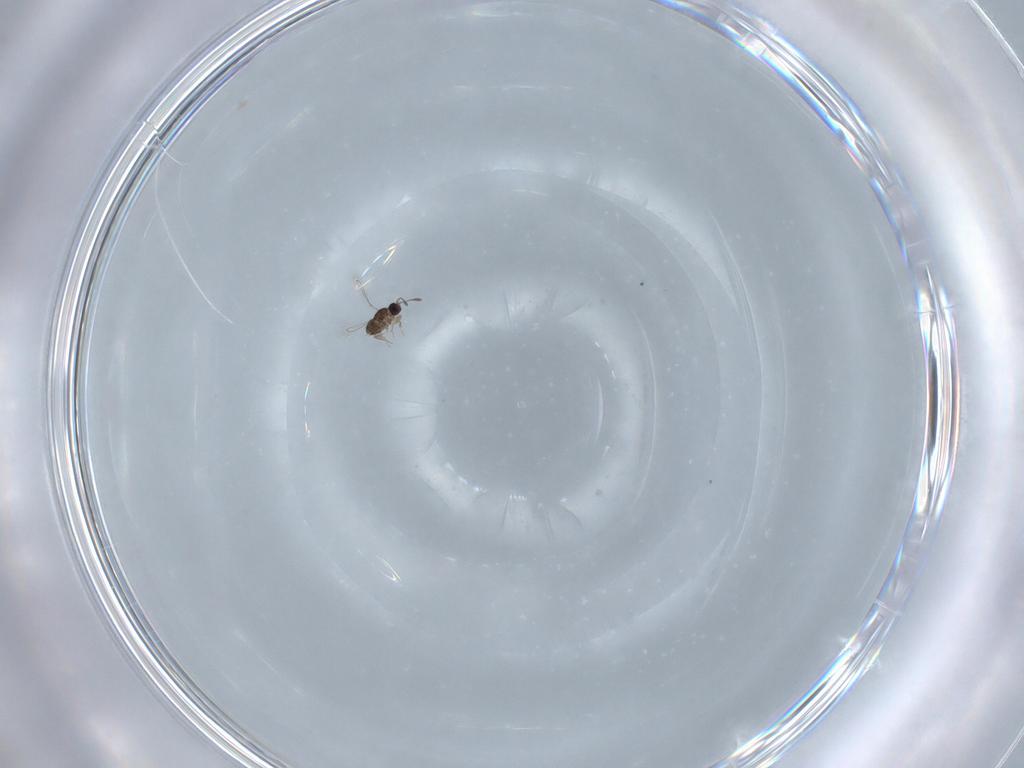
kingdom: Animalia
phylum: Arthropoda
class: Insecta
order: Hymenoptera
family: Mymaridae
